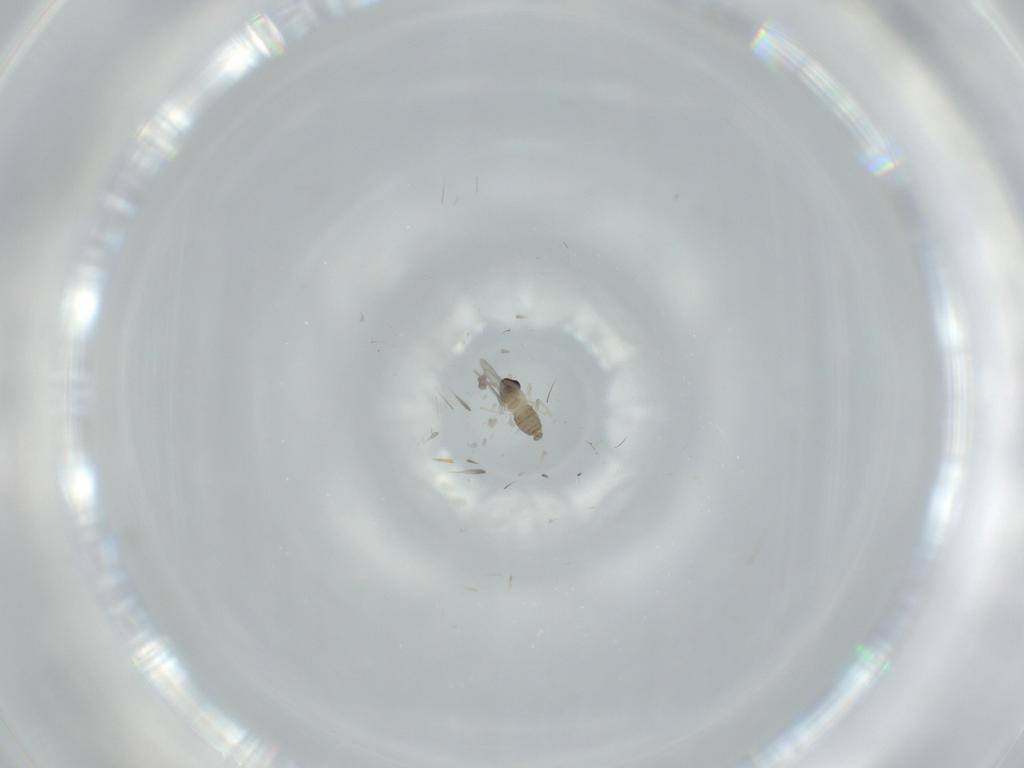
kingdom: Animalia
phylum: Arthropoda
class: Insecta
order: Diptera
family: Cecidomyiidae
